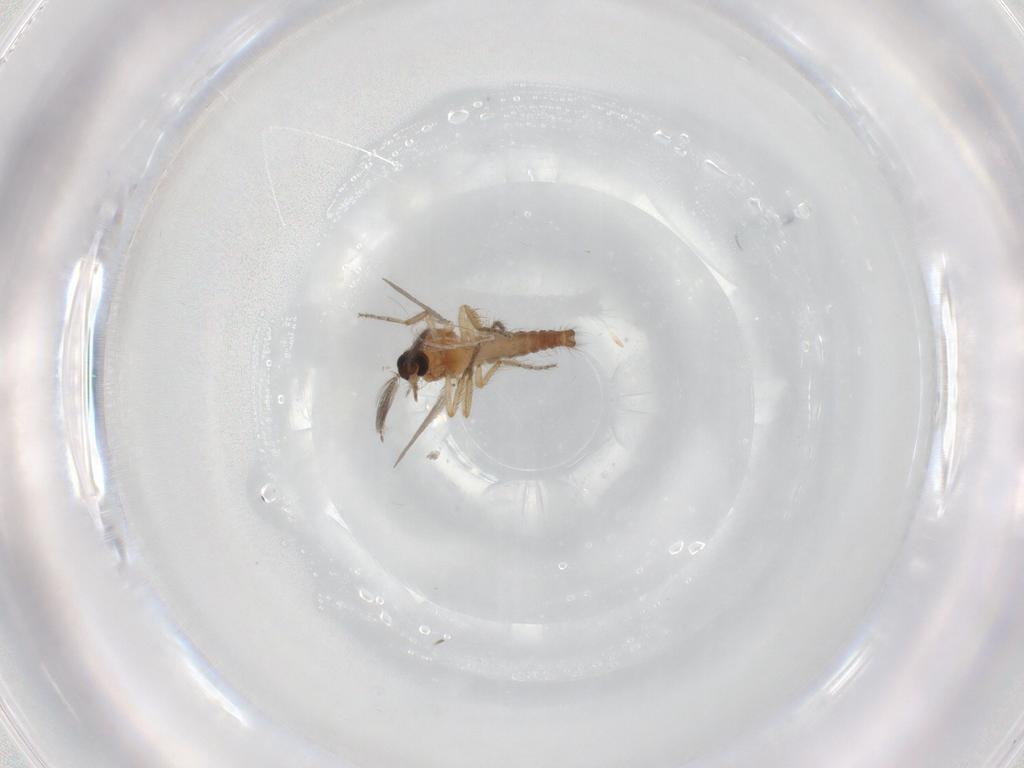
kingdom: Animalia
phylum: Arthropoda
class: Insecta
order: Diptera
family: Ceratopogonidae
